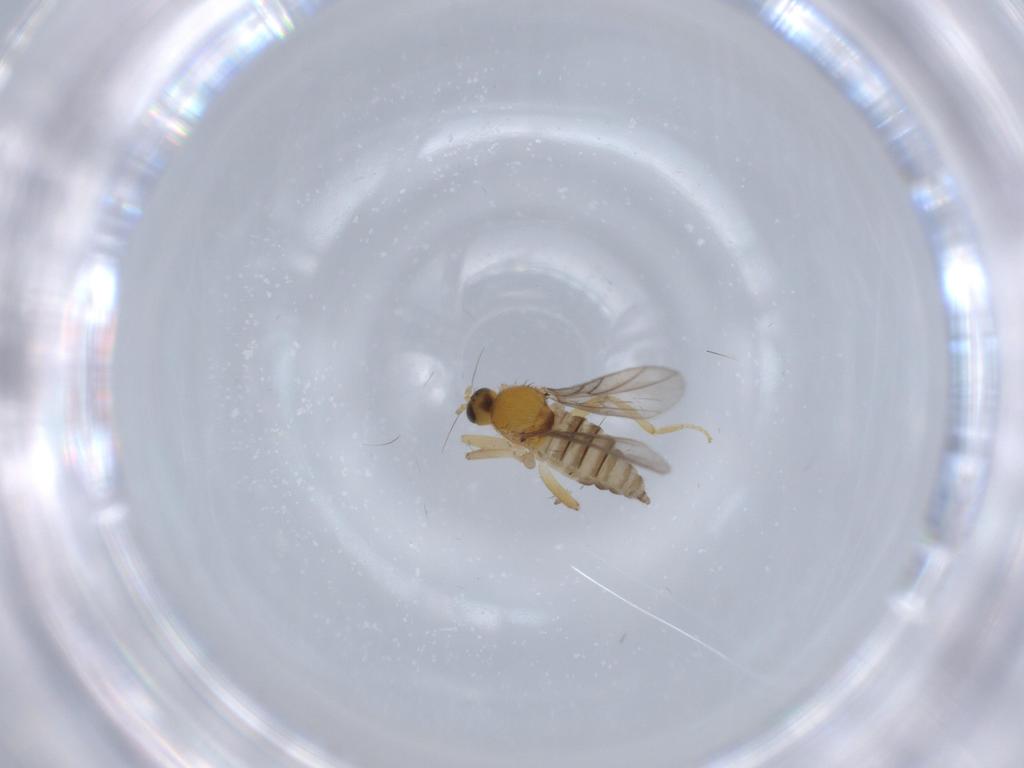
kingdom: Animalia
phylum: Arthropoda
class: Insecta
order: Diptera
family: Hybotidae
